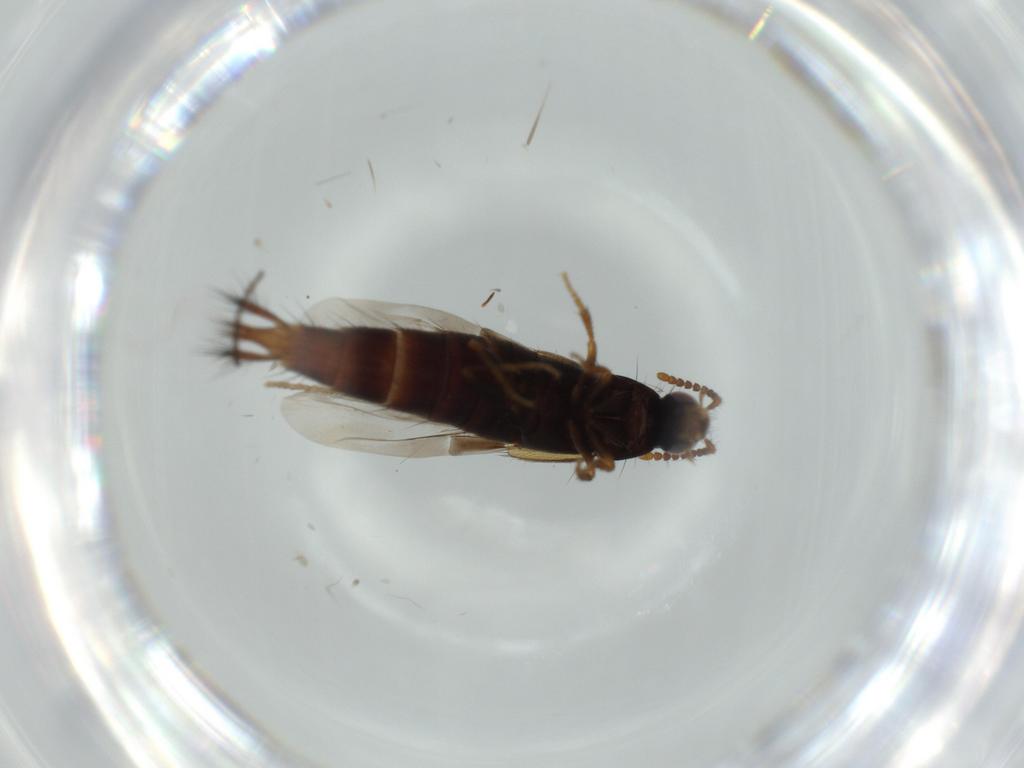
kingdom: Animalia
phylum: Arthropoda
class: Insecta
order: Coleoptera
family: Staphylinidae
